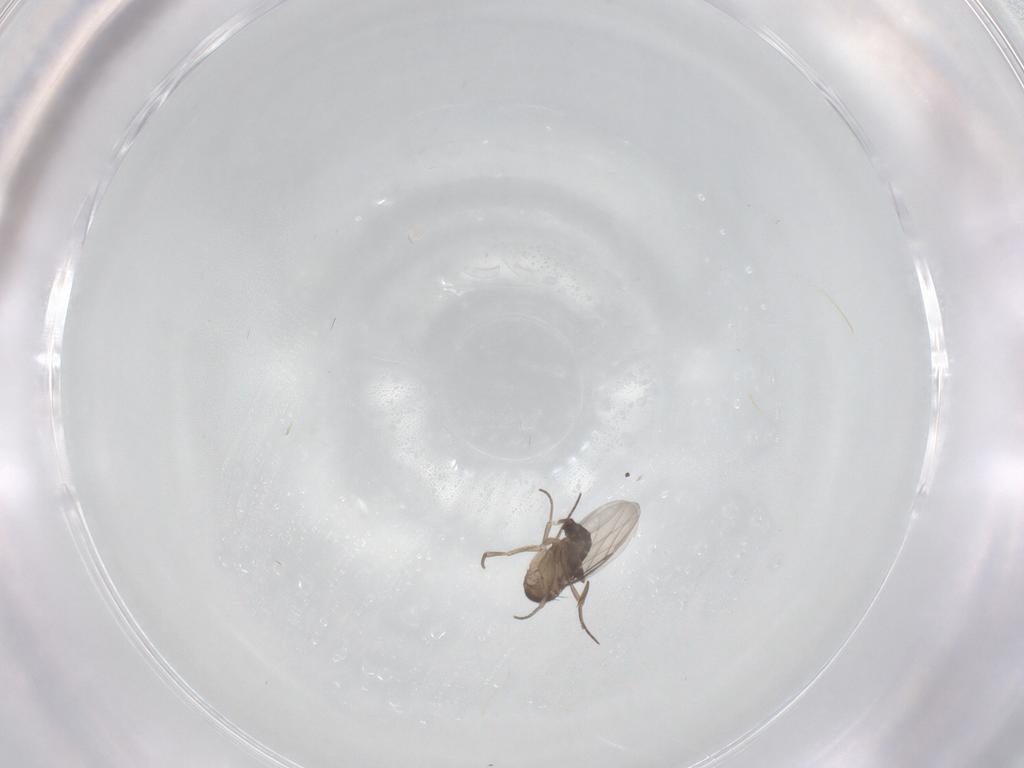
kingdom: Animalia
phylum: Arthropoda
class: Insecta
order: Diptera
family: Phoridae
